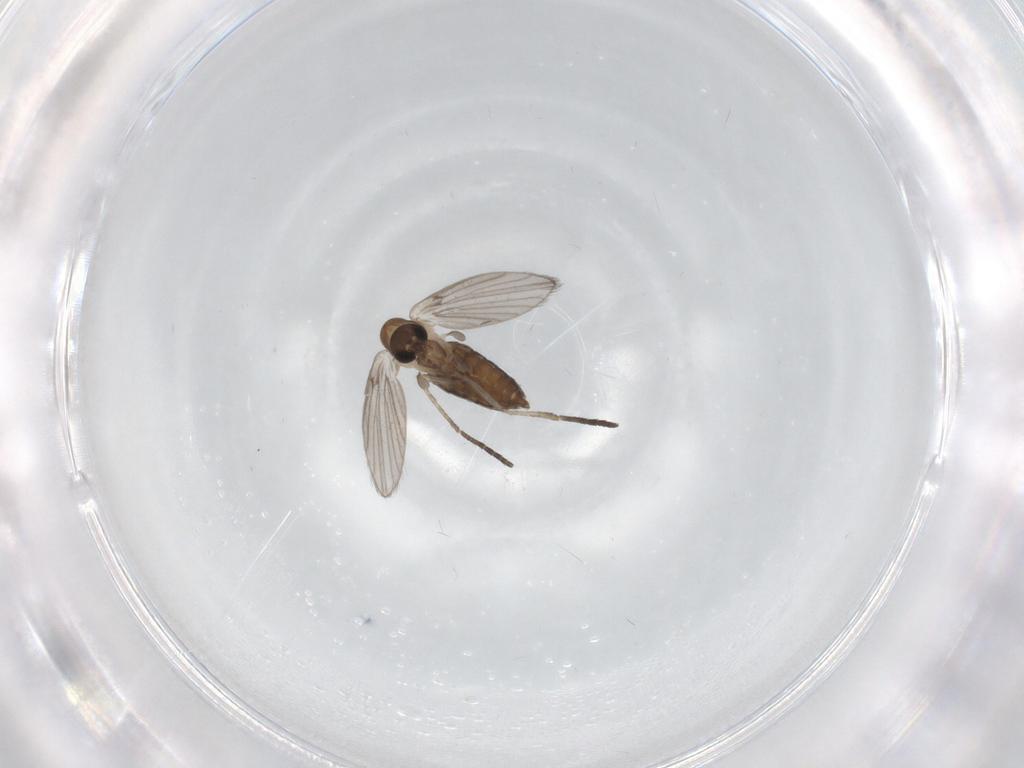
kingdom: Animalia
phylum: Arthropoda
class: Insecta
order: Diptera
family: Psychodidae
